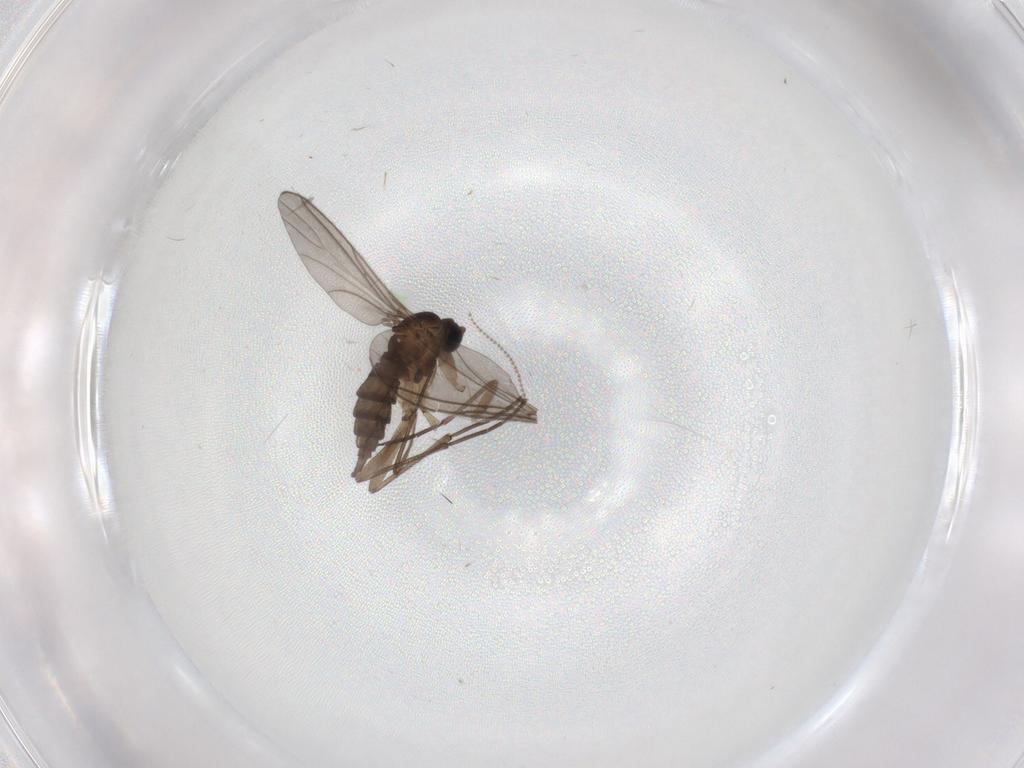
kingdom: Animalia
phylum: Arthropoda
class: Insecta
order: Diptera
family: Cecidomyiidae
